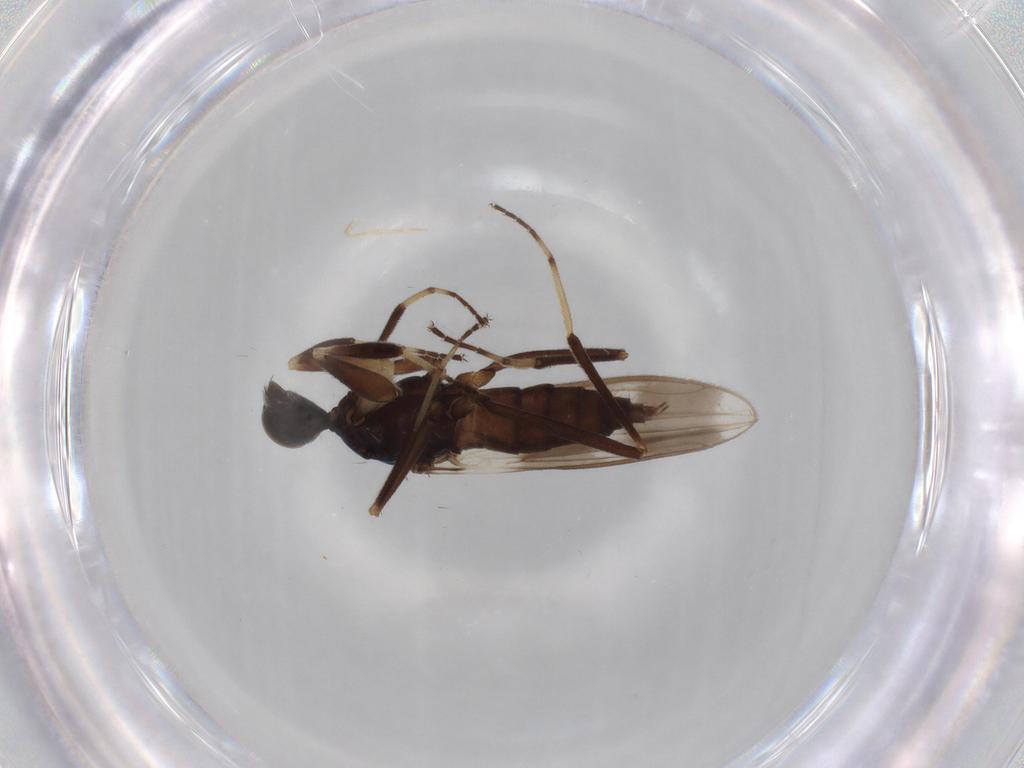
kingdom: Animalia
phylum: Arthropoda
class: Insecta
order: Diptera
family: Hybotidae
